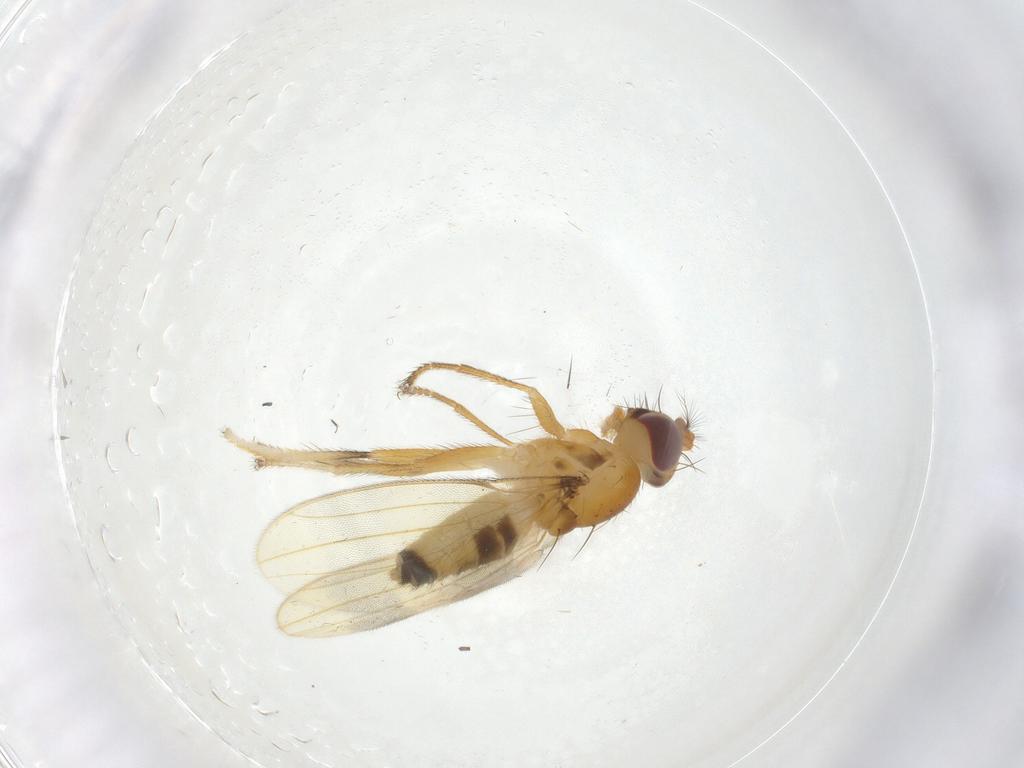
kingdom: Animalia
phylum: Arthropoda
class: Insecta
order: Diptera
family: Periscelididae
